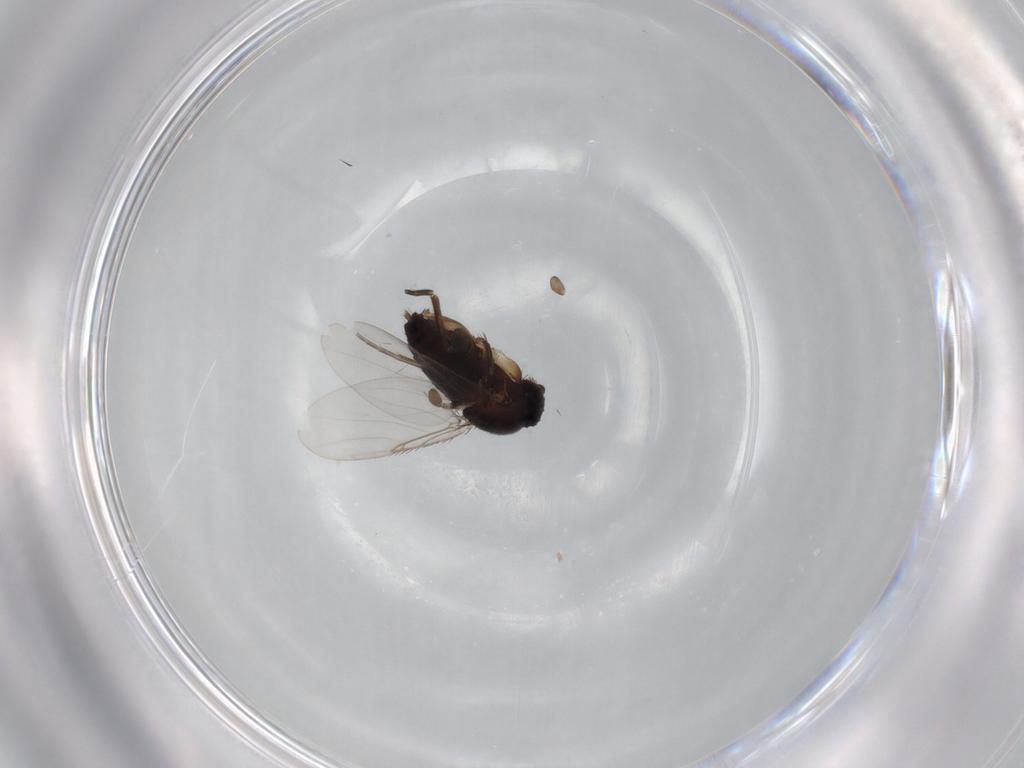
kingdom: Animalia
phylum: Arthropoda
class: Insecta
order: Diptera
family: Phoridae
